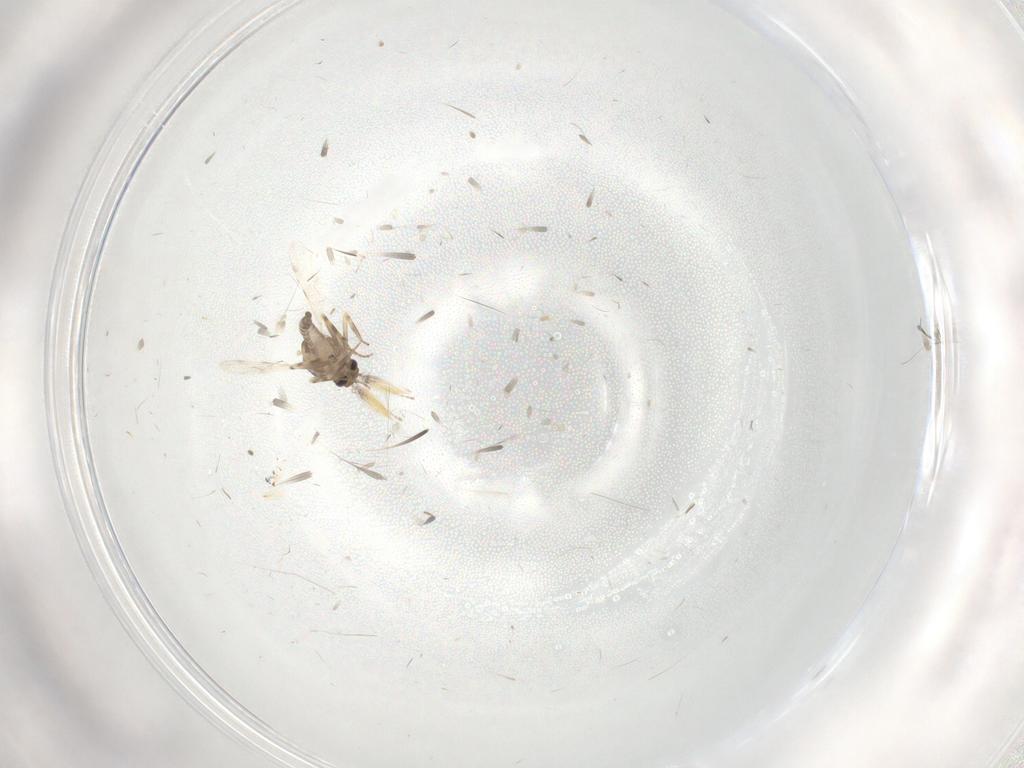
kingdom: Animalia
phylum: Arthropoda
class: Insecta
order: Diptera
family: Ceratopogonidae
